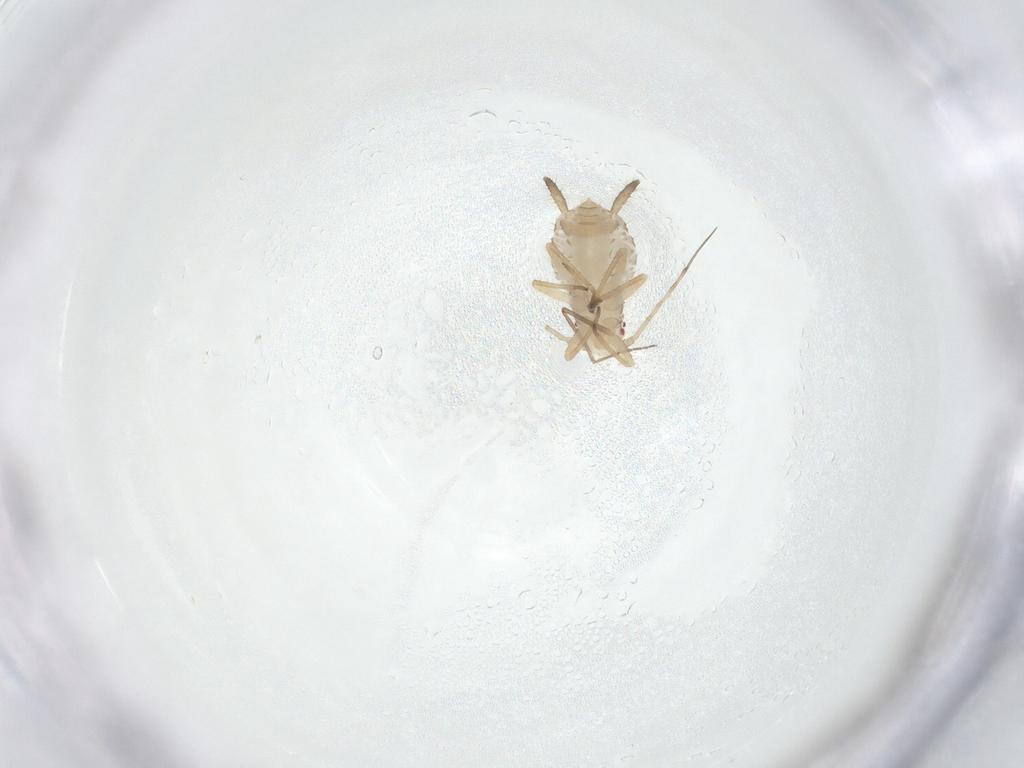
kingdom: Animalia
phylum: Arthropoda
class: Insecta
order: Hemiptera
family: Aphididae
